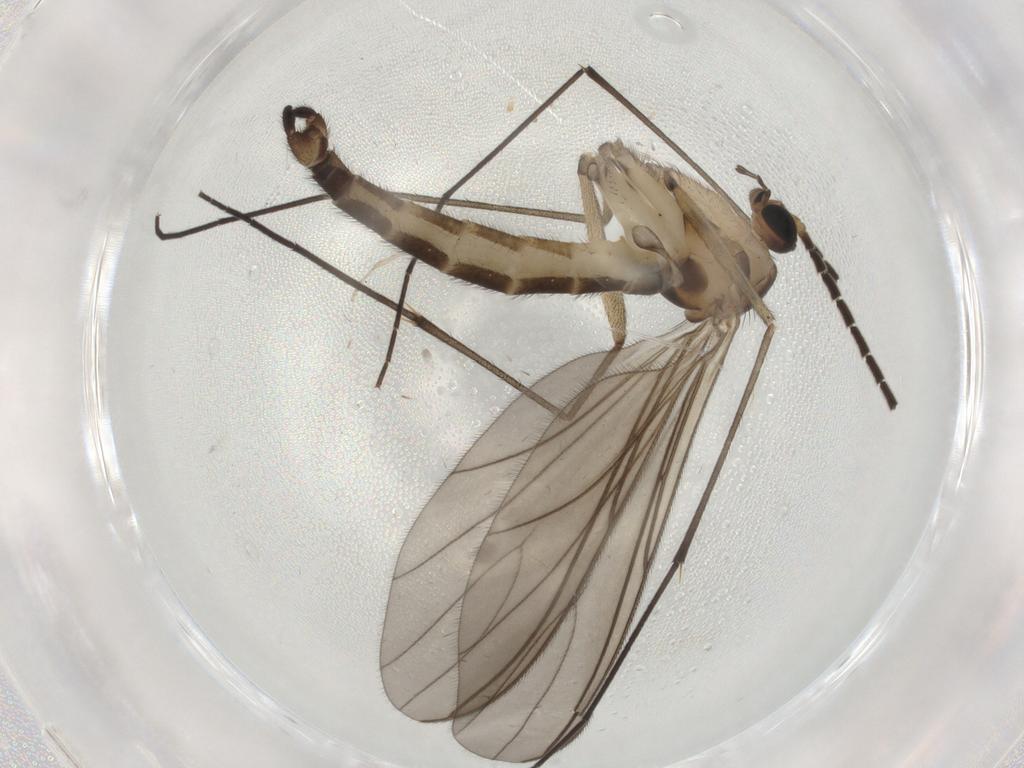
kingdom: Animalia
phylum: Arthropoda
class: Insecta
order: Diptera
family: Sciaridae
